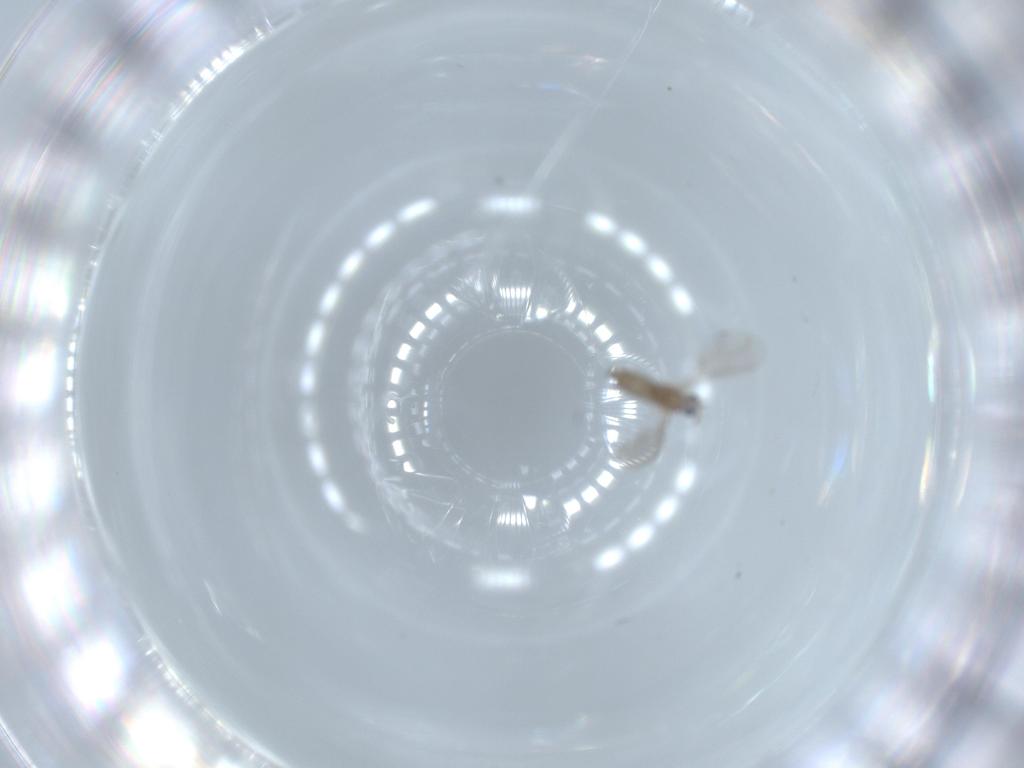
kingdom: Animalia
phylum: Arthropoda
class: Insecta
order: Diptera
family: Cecidomyiidae
